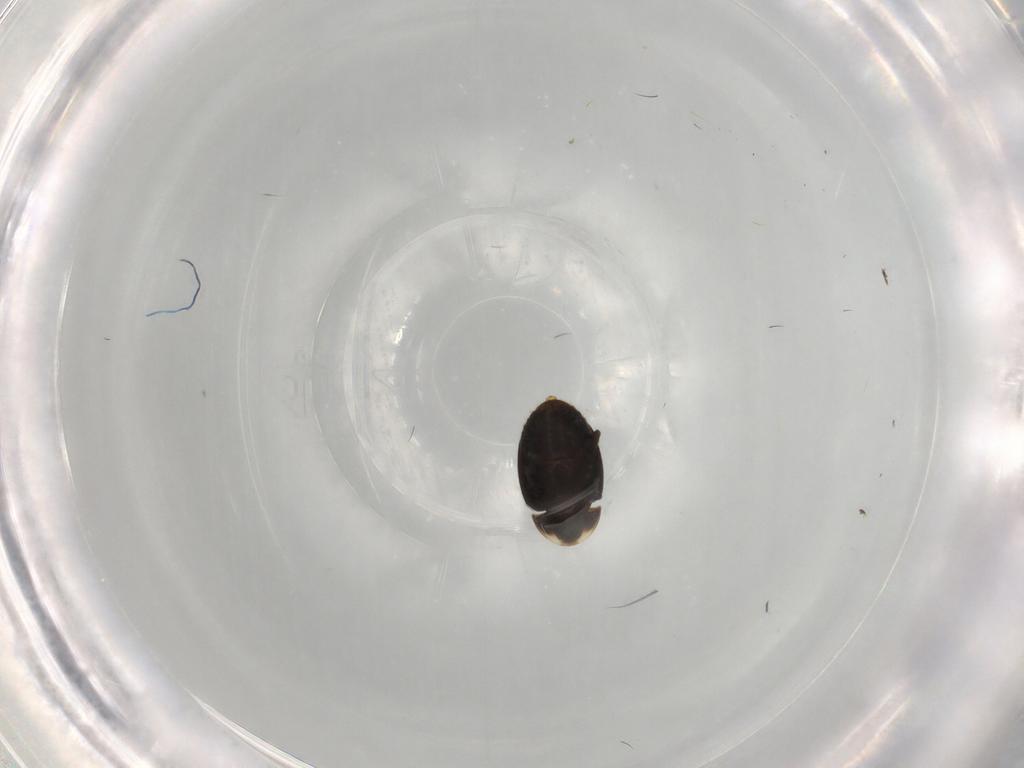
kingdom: Animalia
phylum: Arthropoda
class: Insecta
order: Coleoptera
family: Corylophidae
